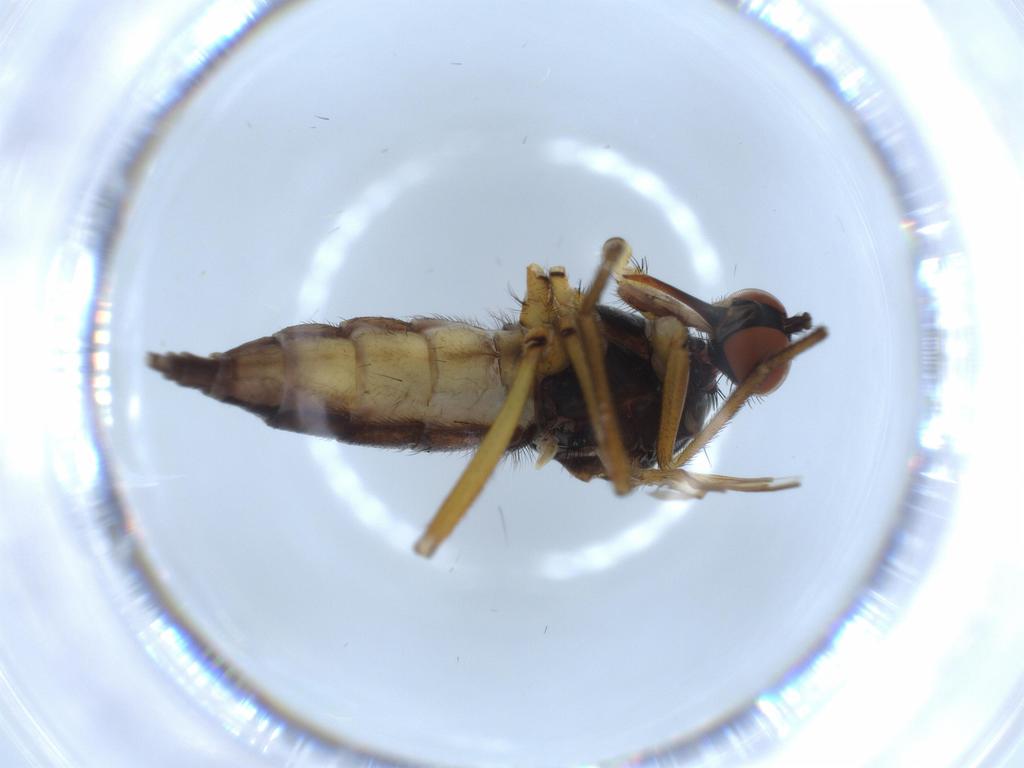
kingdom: Animalia
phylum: Arthropoda
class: Insecta
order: Diptera
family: Empididae
